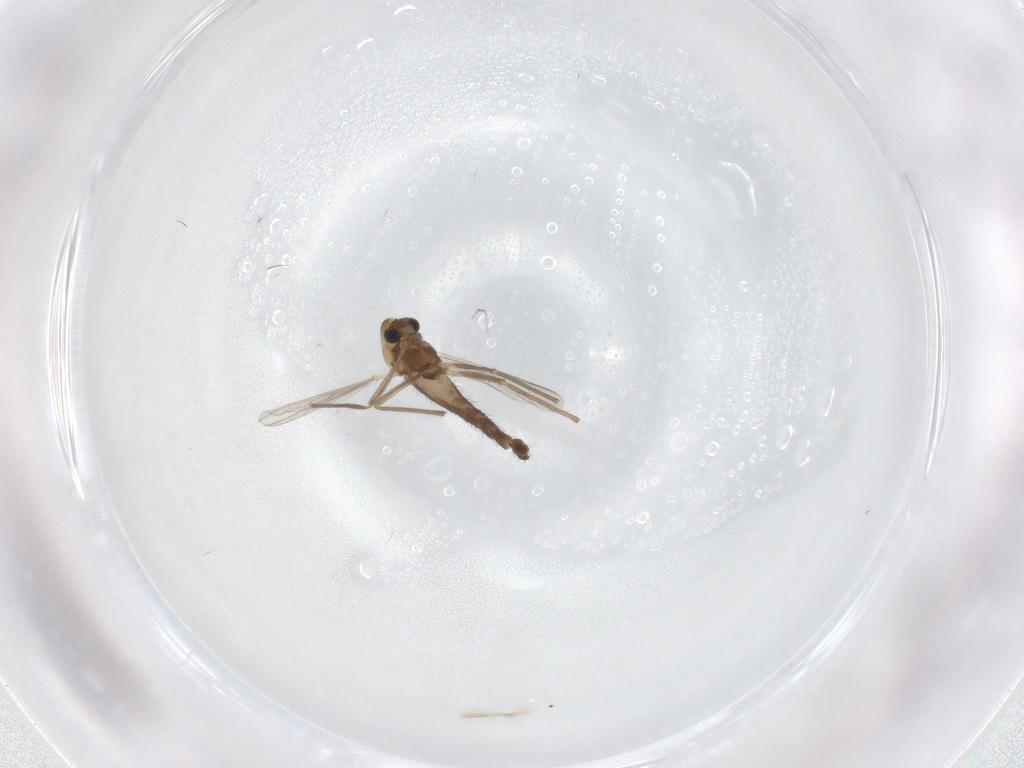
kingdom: Animalia
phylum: Arthropoda
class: Insecta
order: Diptera
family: Chironomidae
